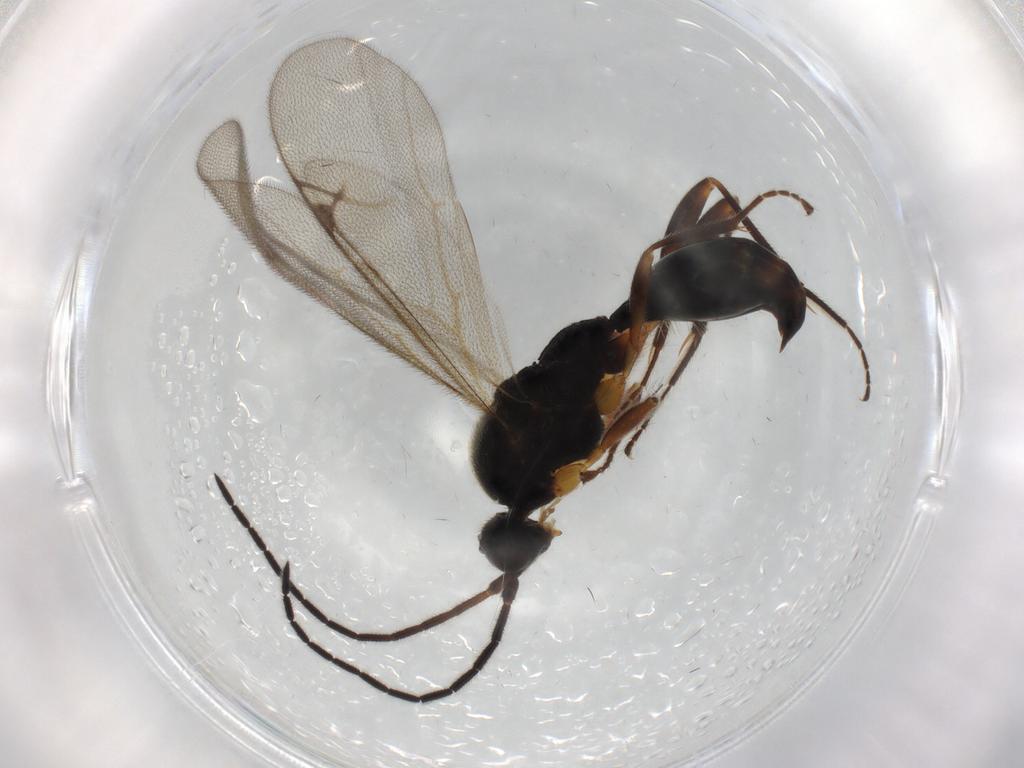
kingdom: Animalia
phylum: Arthropoda
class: Insecta
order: Hymenoptera
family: Proctotrupidae
